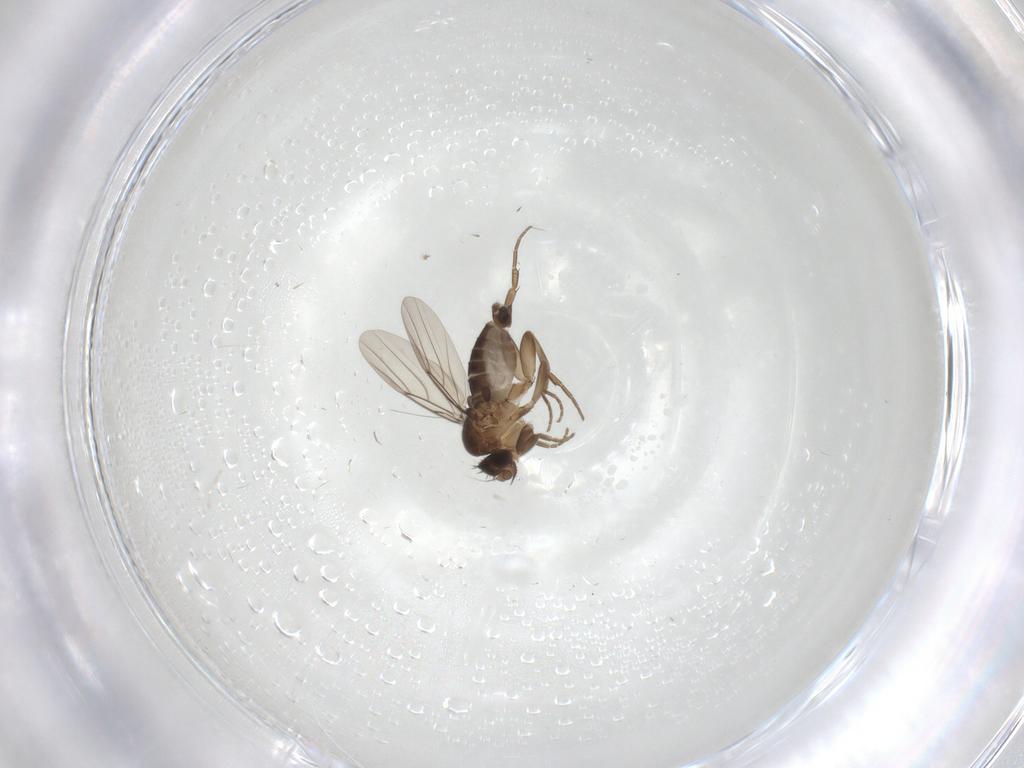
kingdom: Animalia
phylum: Arthropoda
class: Insecta
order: Diptera
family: Phoridae
